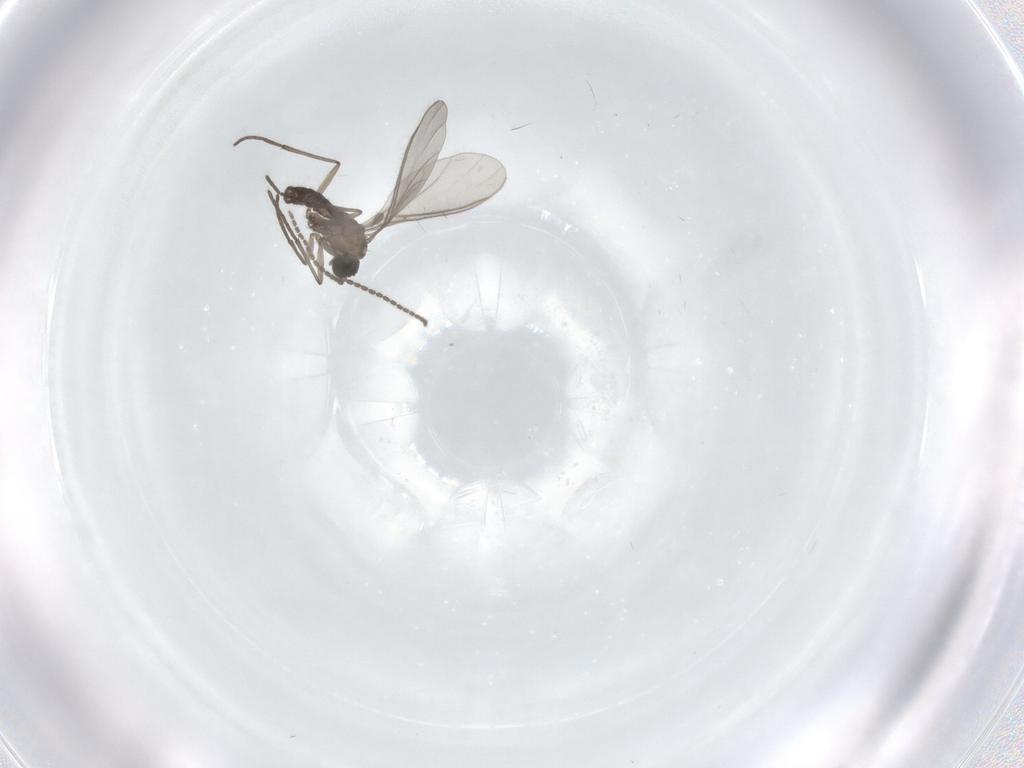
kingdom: Animalia
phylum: Arthropoda
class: Insecta
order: Diptera
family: Sciaridae
